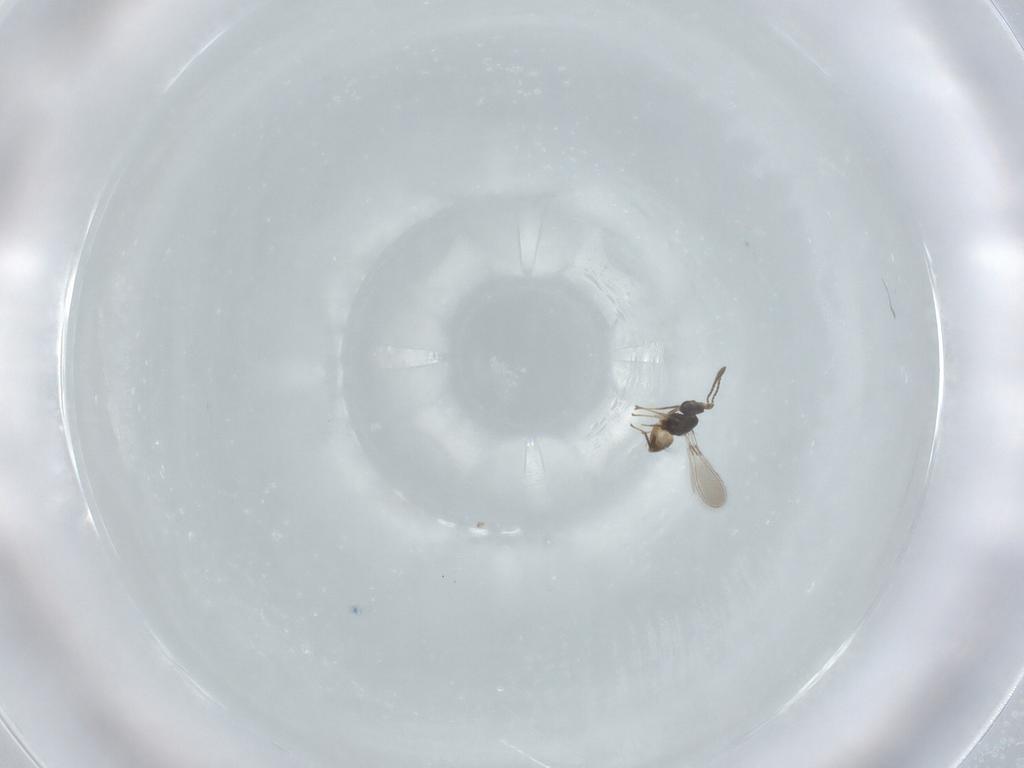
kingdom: Animalia
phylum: Arthropoda
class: Insecta
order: Hymenoptera
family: Mymaridae
